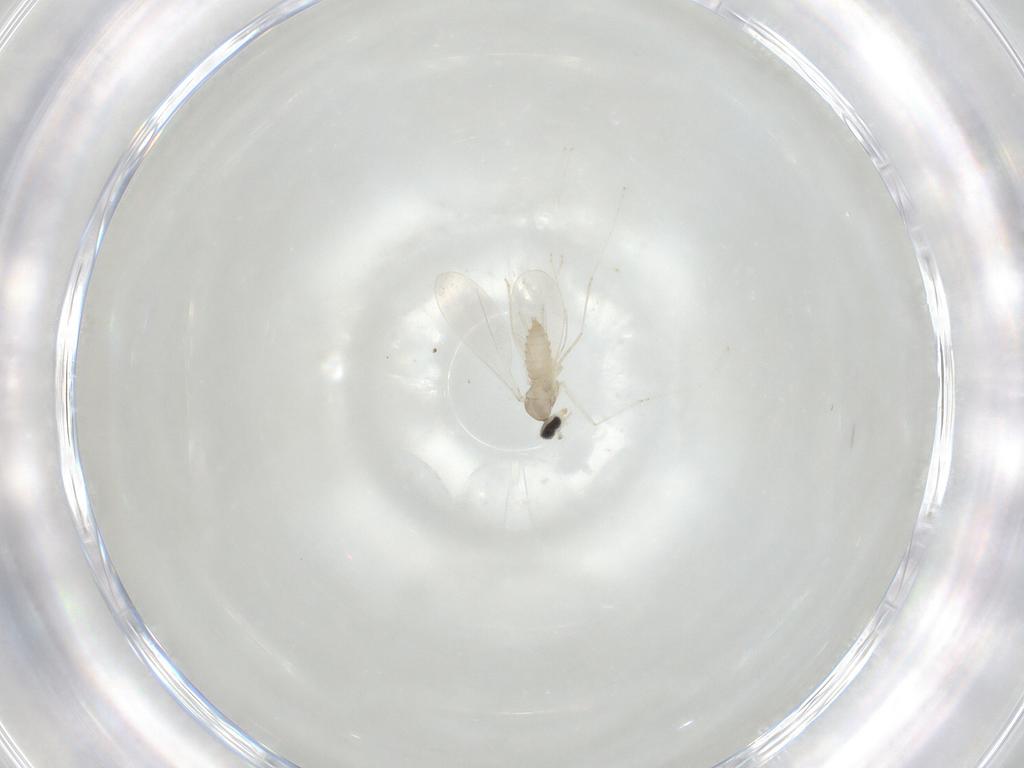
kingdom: Animalia
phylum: Arthropoda
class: Insecta
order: Diptera
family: Cecidomyiidae
